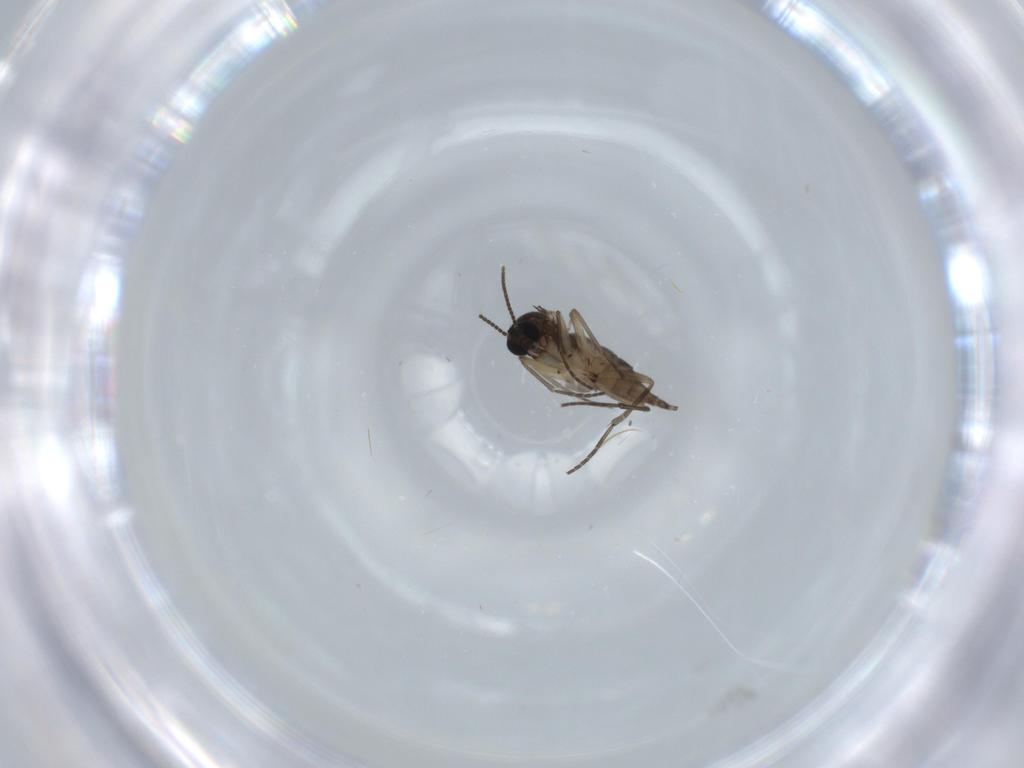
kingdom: Animalia
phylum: Arthropoda
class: Insecta
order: Diptera
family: Sciaridae
